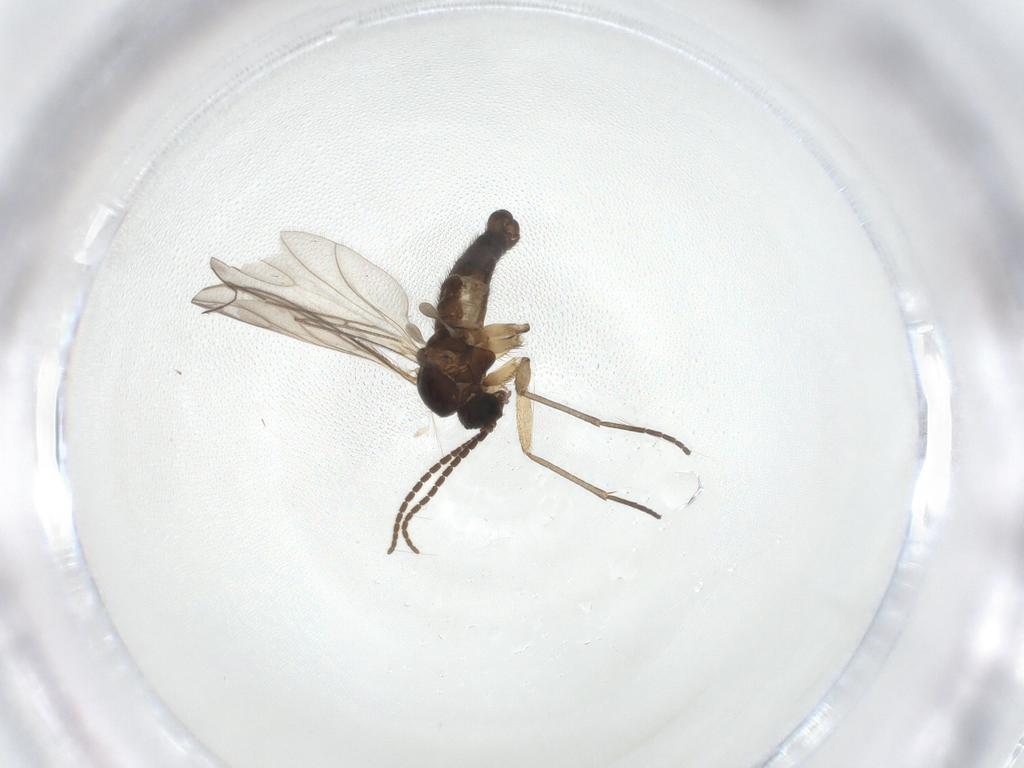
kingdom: Animalia
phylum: Arthropoda
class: Insecta
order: Diptera
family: Sciaridae
